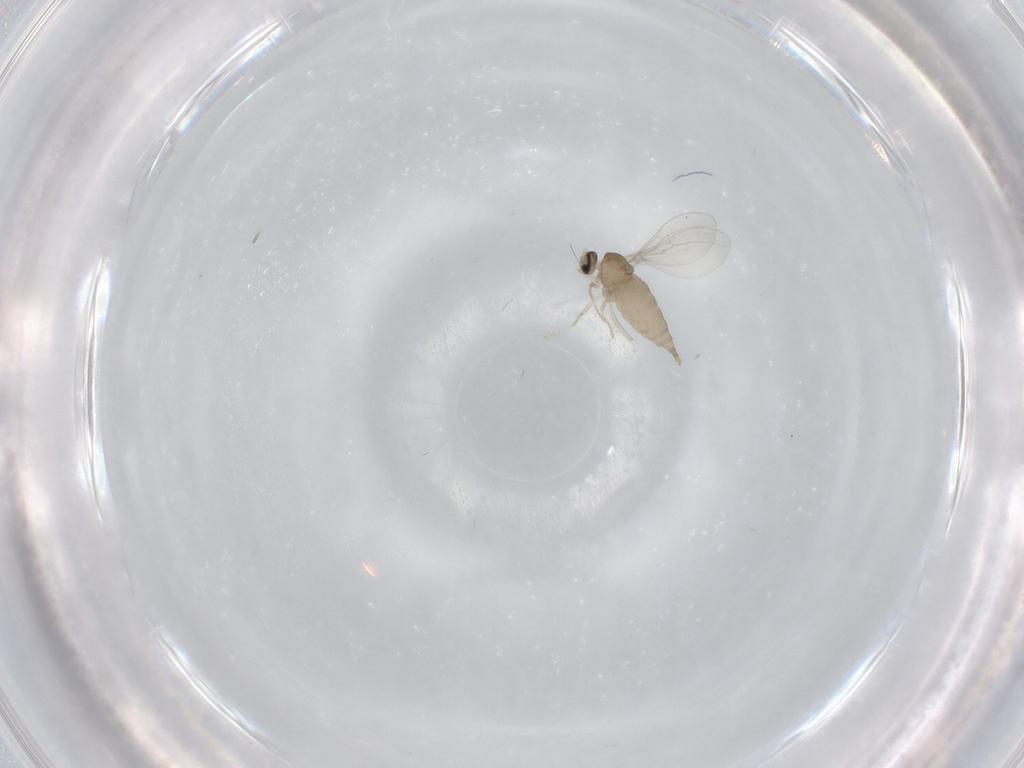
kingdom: Animalia
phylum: Arthropoda
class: Insecta
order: Diptera
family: Cecidomyiidae
